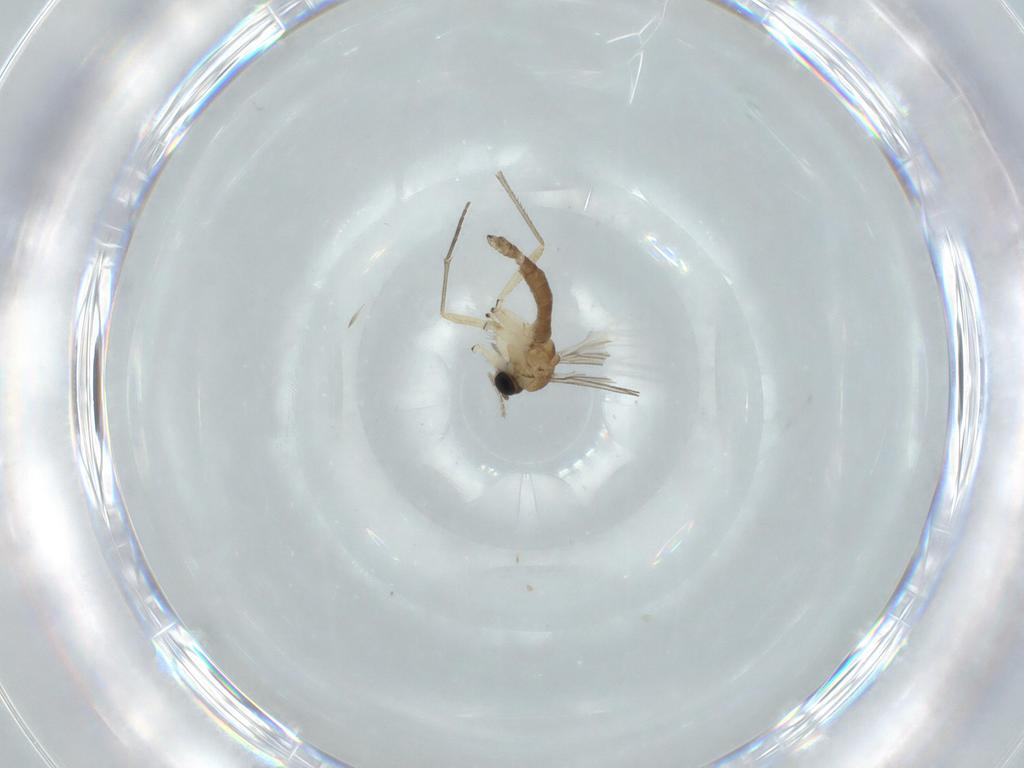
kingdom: Animalia
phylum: Arthropoda
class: Insecta
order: Diptera
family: Sciaridae
